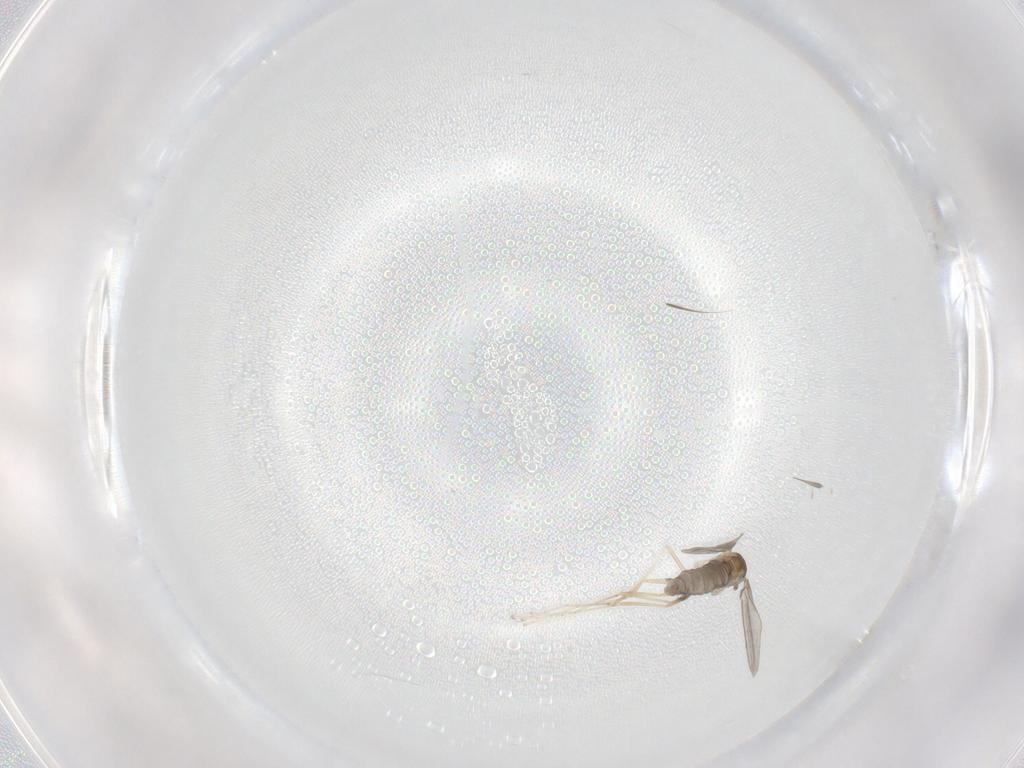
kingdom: Animalia
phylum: Arthropoda
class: Insecta
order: Diptera
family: Cecidomyiidae
